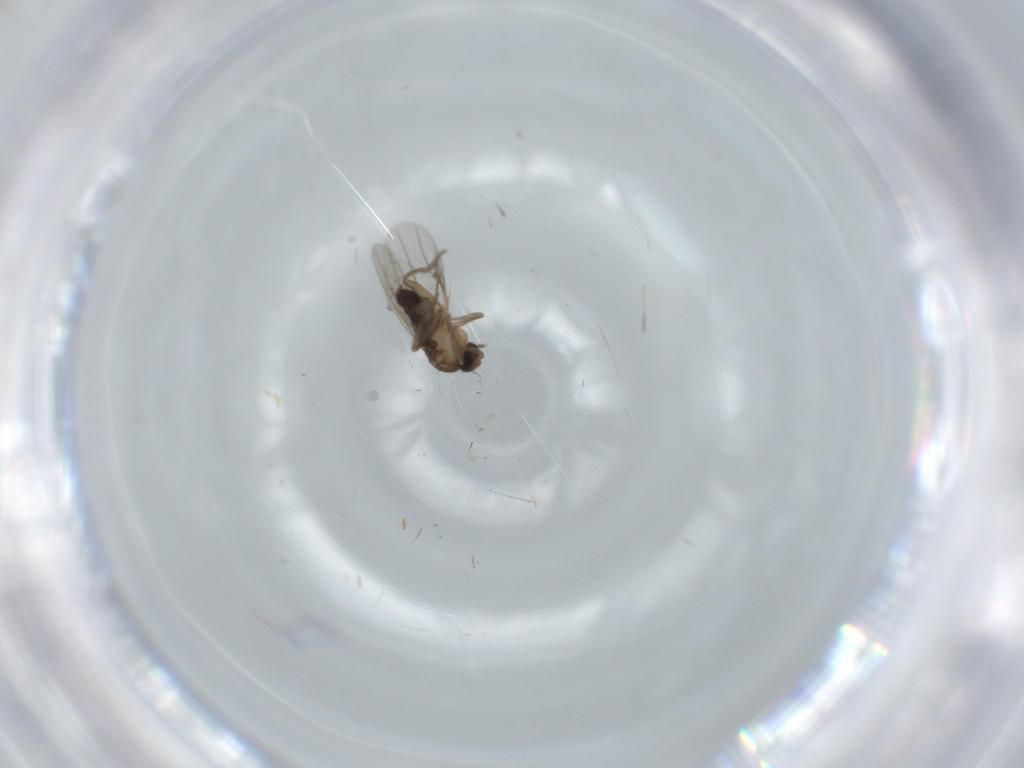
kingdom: Animalia
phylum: Arthropoda
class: Insecta
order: Diptera
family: Phoridae
